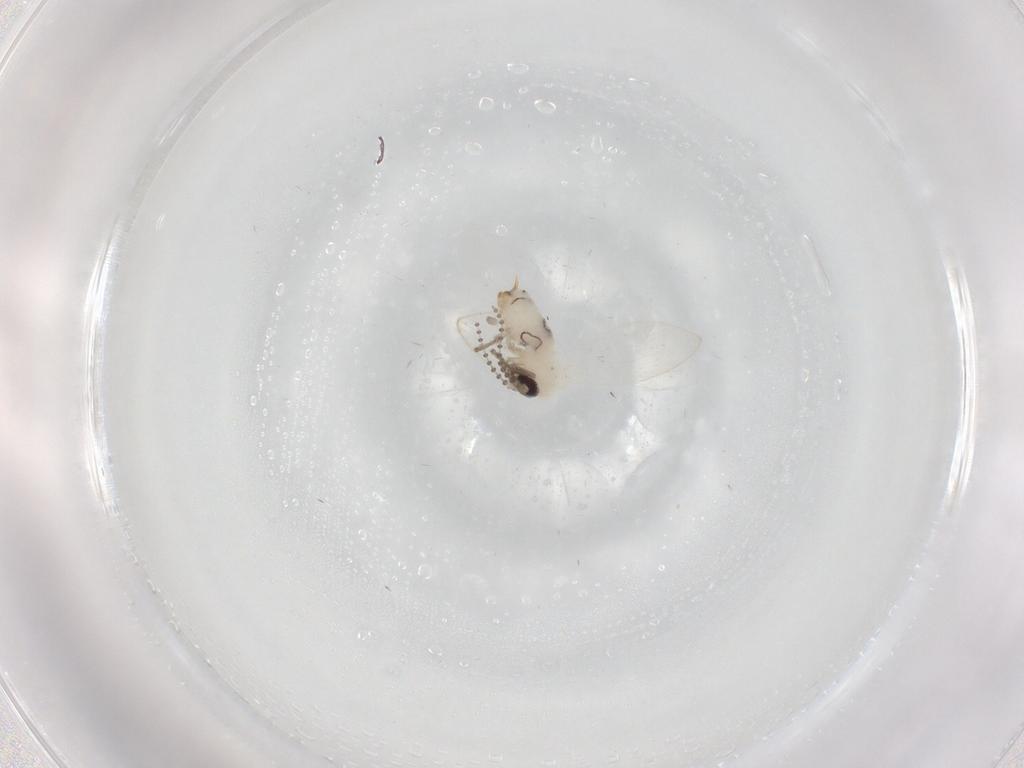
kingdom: Animalia
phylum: Arthropoda
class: Insecta
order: Diptera
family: Psychodidae
